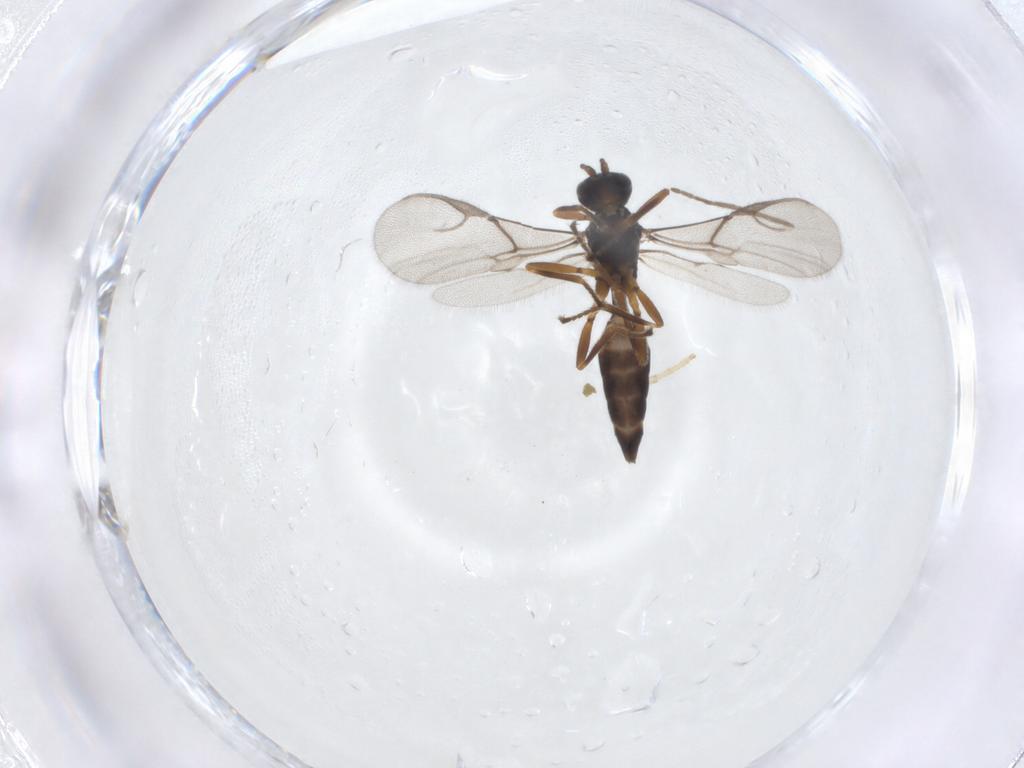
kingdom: Animalia
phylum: Arthropoda
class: Insecta
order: Hymenoptera
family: Braconidae
